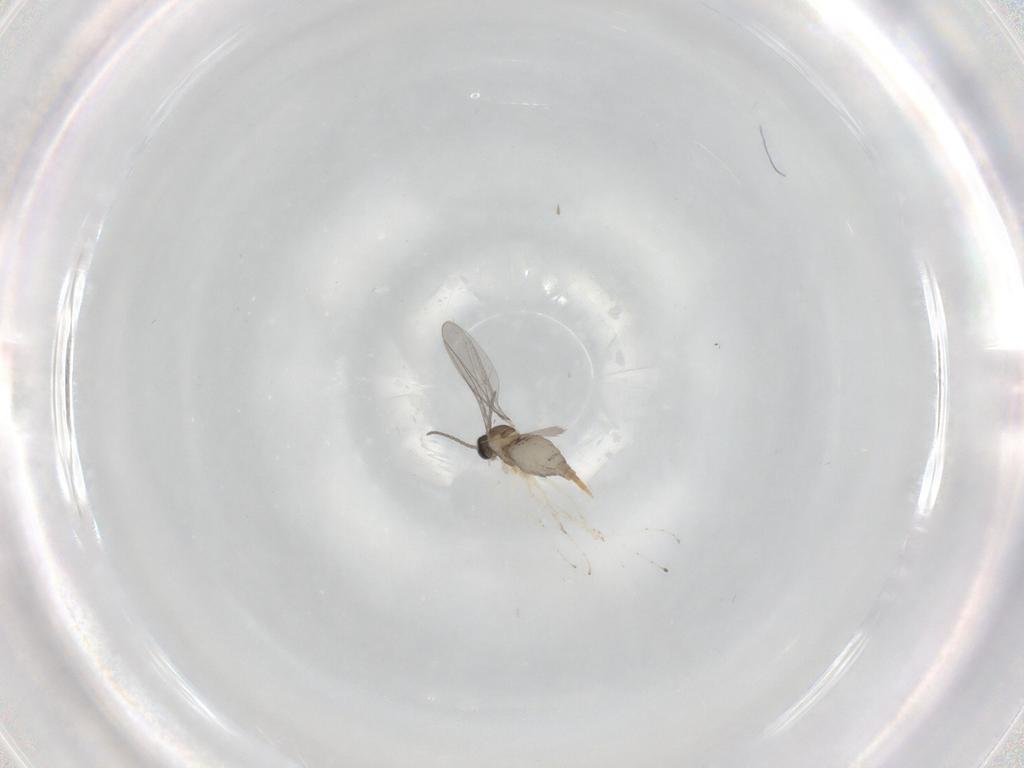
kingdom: Animalia
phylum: Arthropoda
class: Insecta
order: Diptera
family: Cecidomyiidae
